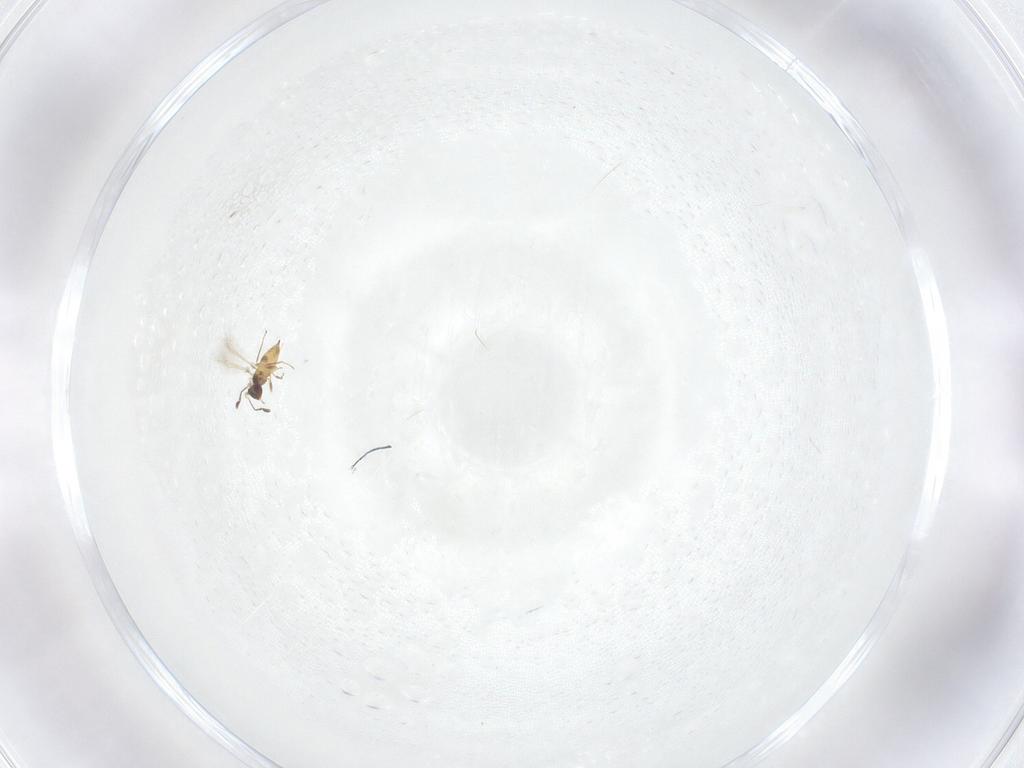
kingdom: Animalia
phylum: Arthropoda
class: Insecta
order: Hymenoptera
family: Mymaridae
